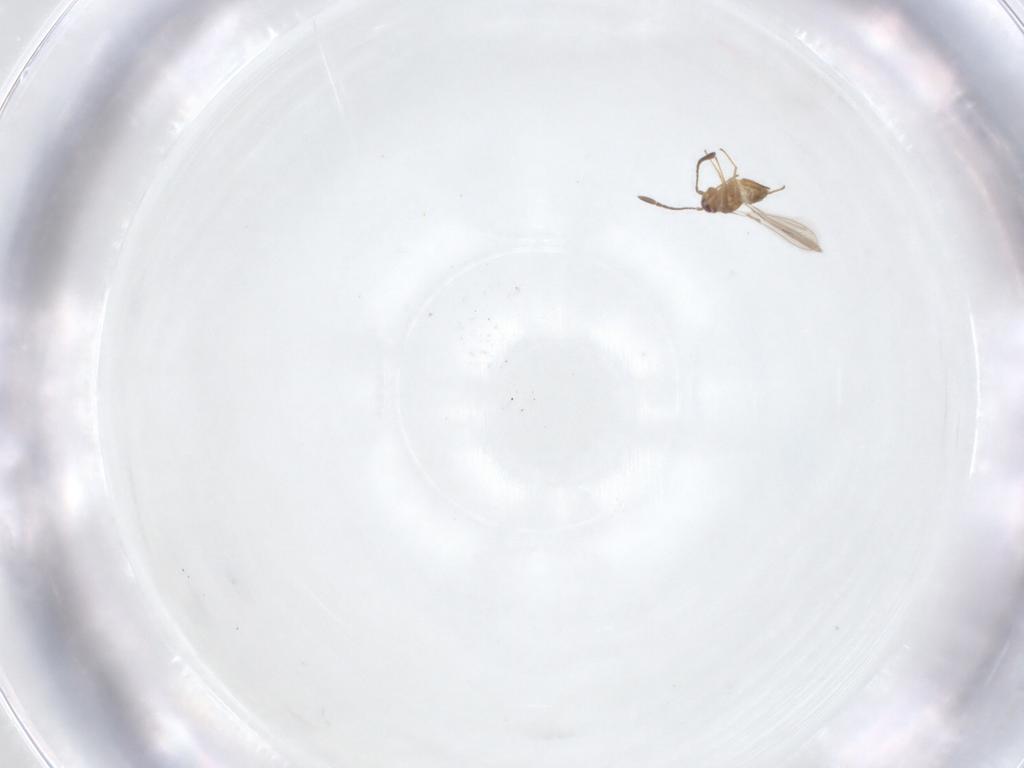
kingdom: Animalia
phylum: Arthropoda
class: Insecta
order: Hymenoptera
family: Mymaridae
